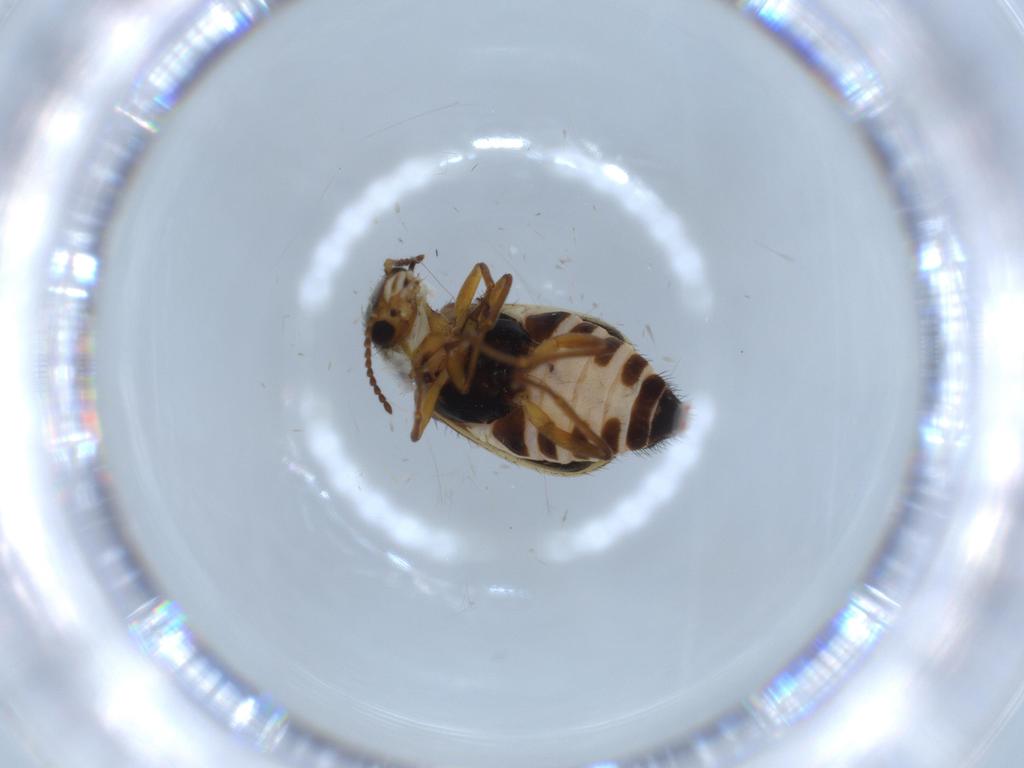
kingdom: Animalia
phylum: Arthropoda
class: Insecta
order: Coleoptera
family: Melyridae
